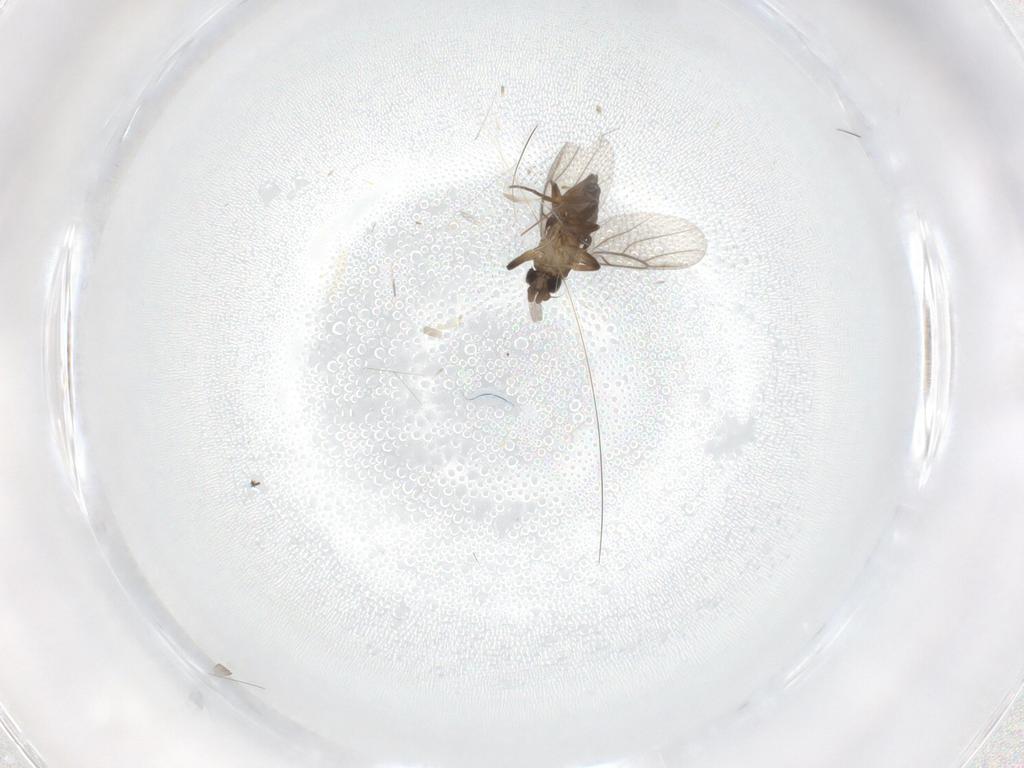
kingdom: Animalia
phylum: Arthropoda
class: Insecta
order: Diptera
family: Phoridae
